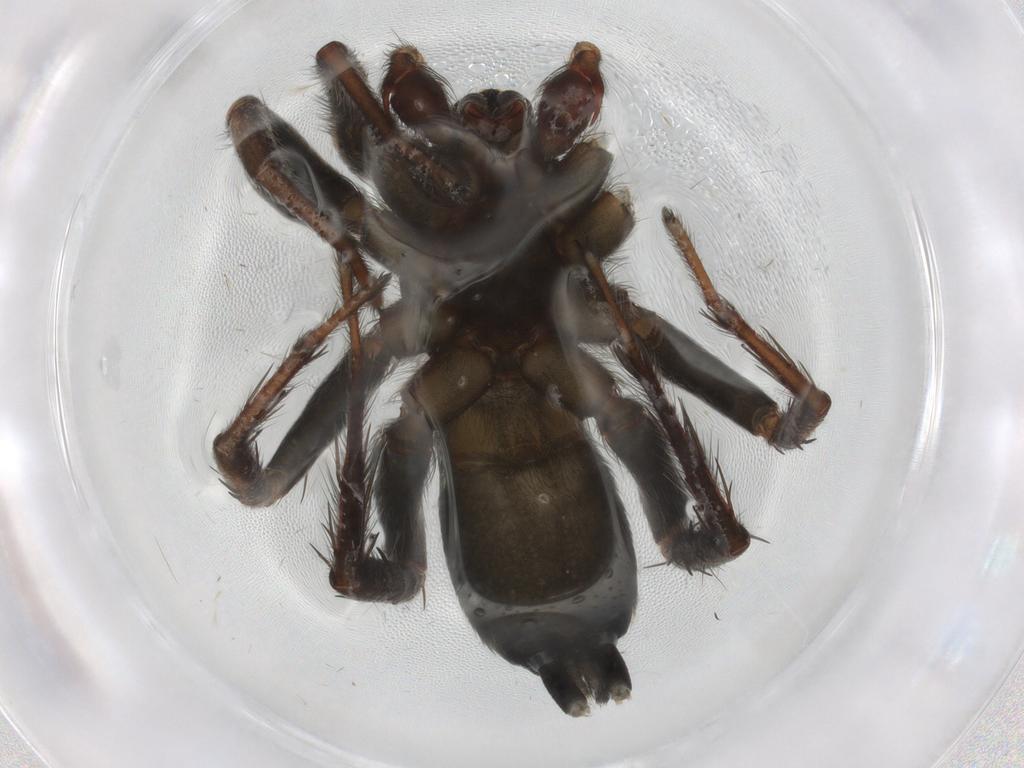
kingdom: Animalia
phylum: Arthropoda
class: Arachnida
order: Araneae
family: Gnaphosidae
